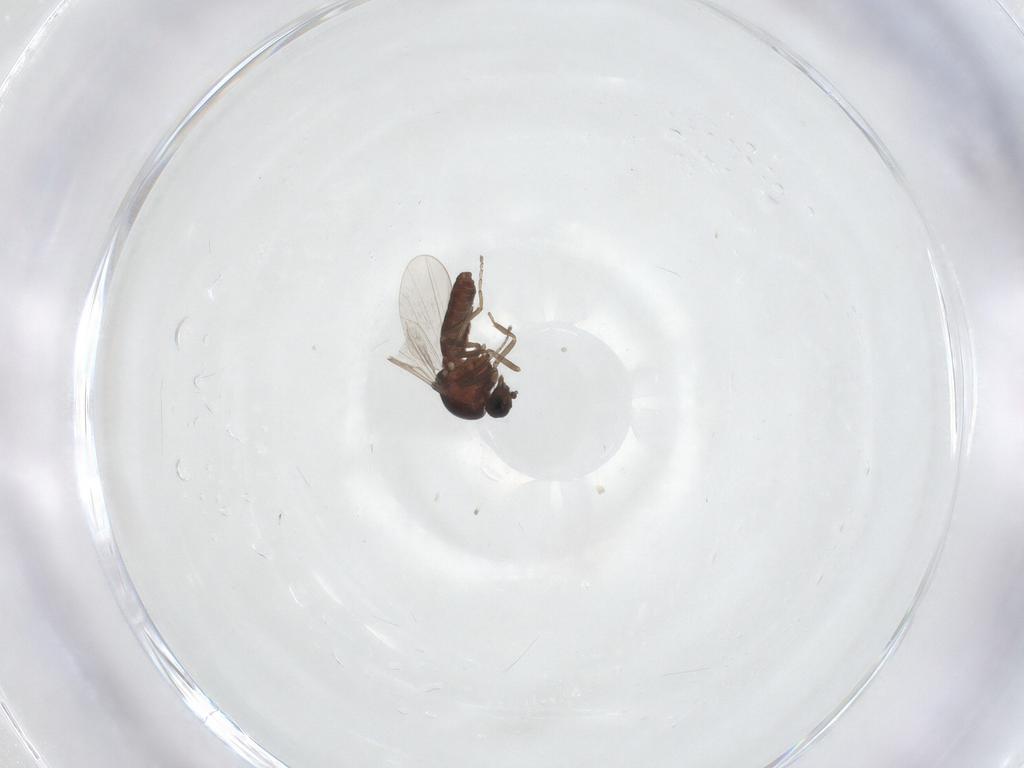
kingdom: Animalia
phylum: Arthropoda
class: Insecta
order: Diptera
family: Ceratopogonidae
